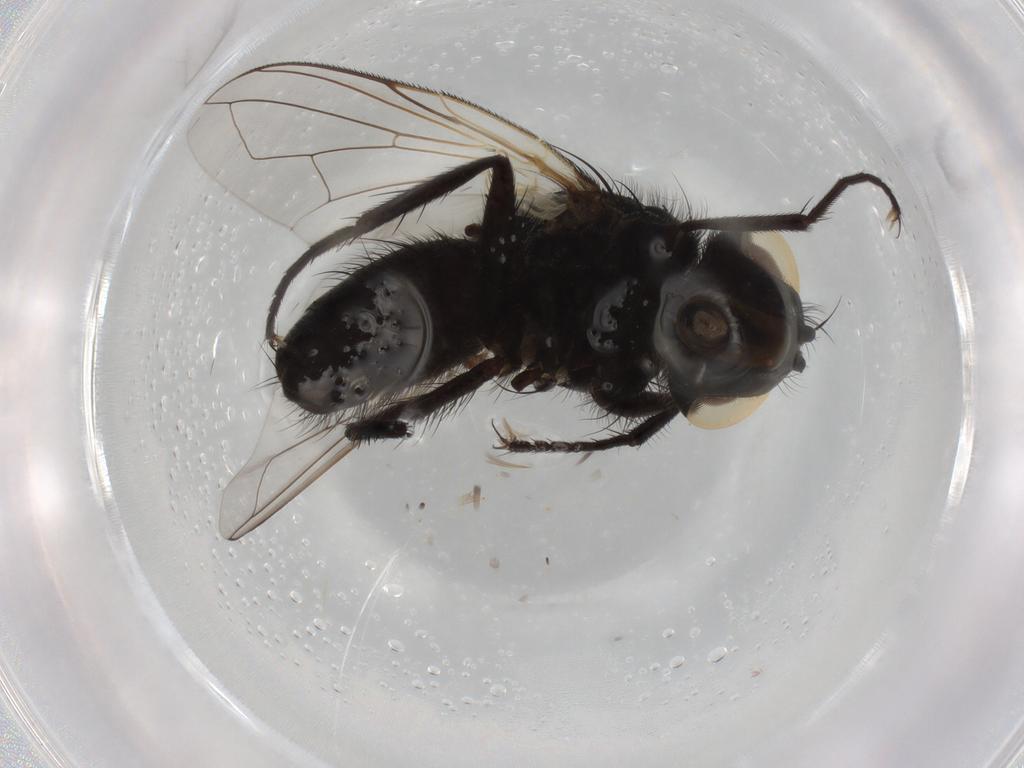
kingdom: Animalia
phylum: Arthropoda
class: Insecta
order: Diptera
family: Tachinidae
